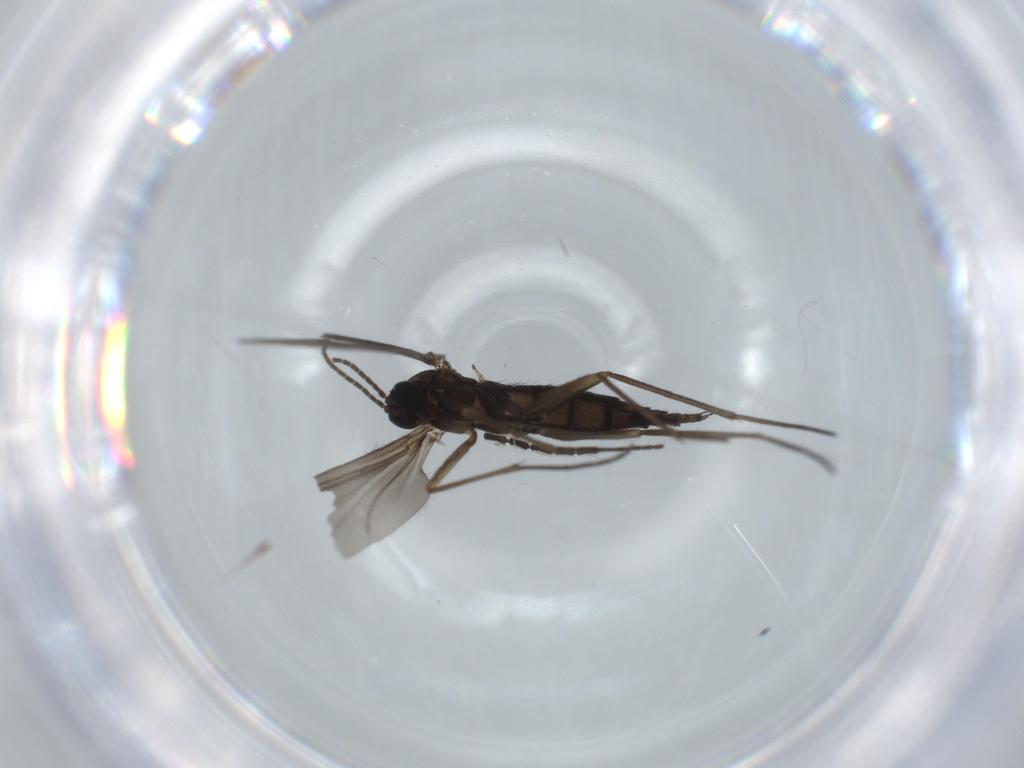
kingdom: Animalia
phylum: Arthropoda
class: Insecta
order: Diptera
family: Sciaridae
